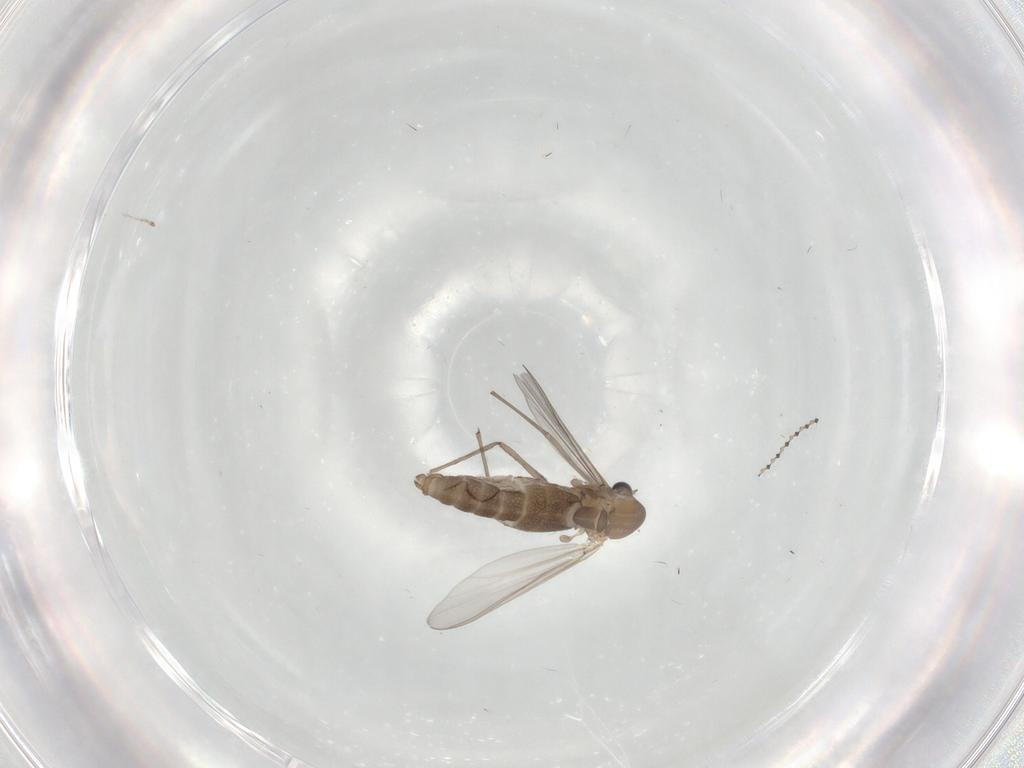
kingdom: Animalia
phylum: Arthropoda
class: Insecta
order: Diptera
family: Chironomidae
